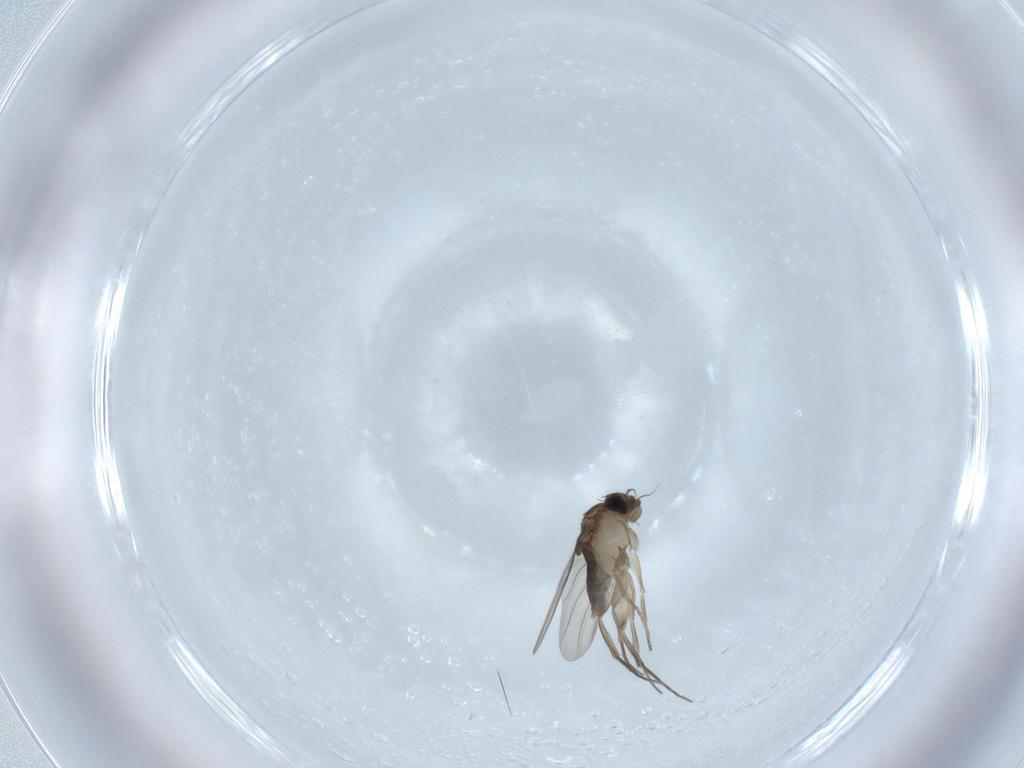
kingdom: Animalia
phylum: Arthropoda
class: Insecta
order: Diptera
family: Phoridae
